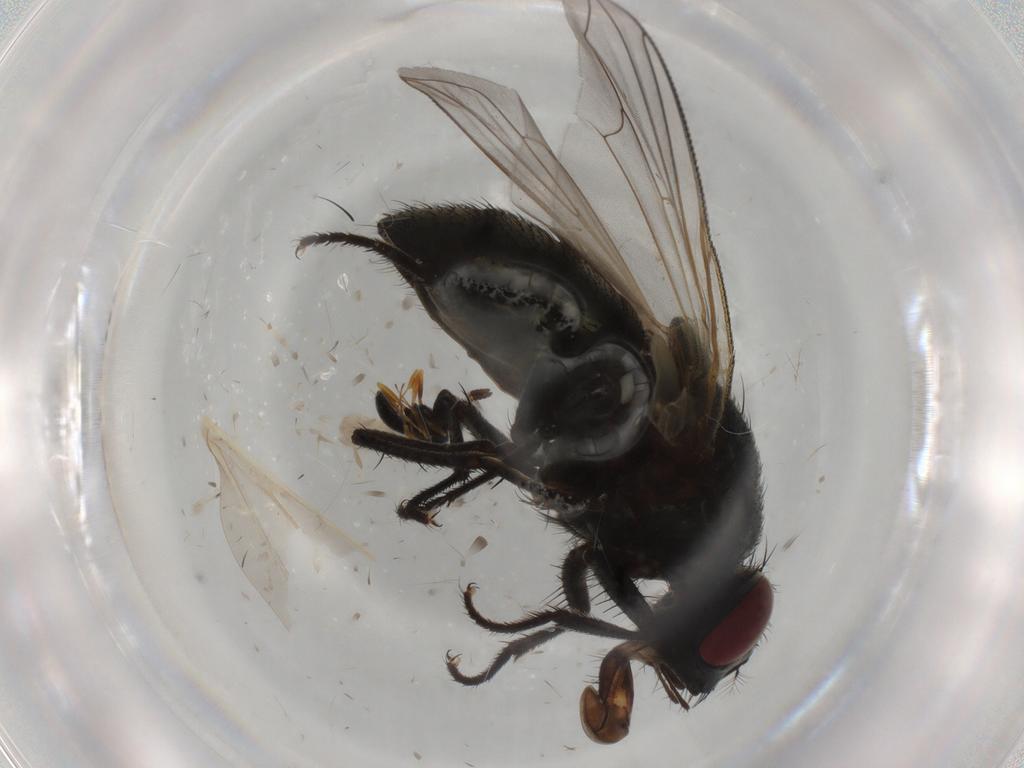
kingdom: Animalia
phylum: Arthropoda
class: Insecta
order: Diptera
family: Muscidae
